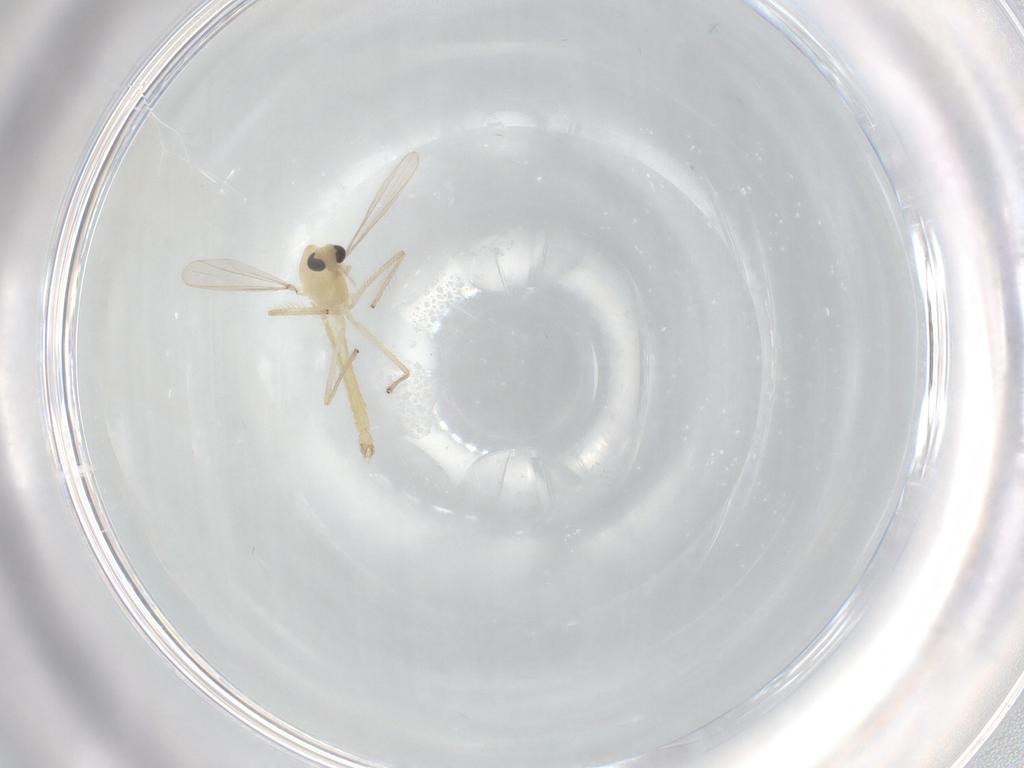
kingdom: Animalia
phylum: Arthropoda
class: Insecta
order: Diptera
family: Chironomidae
